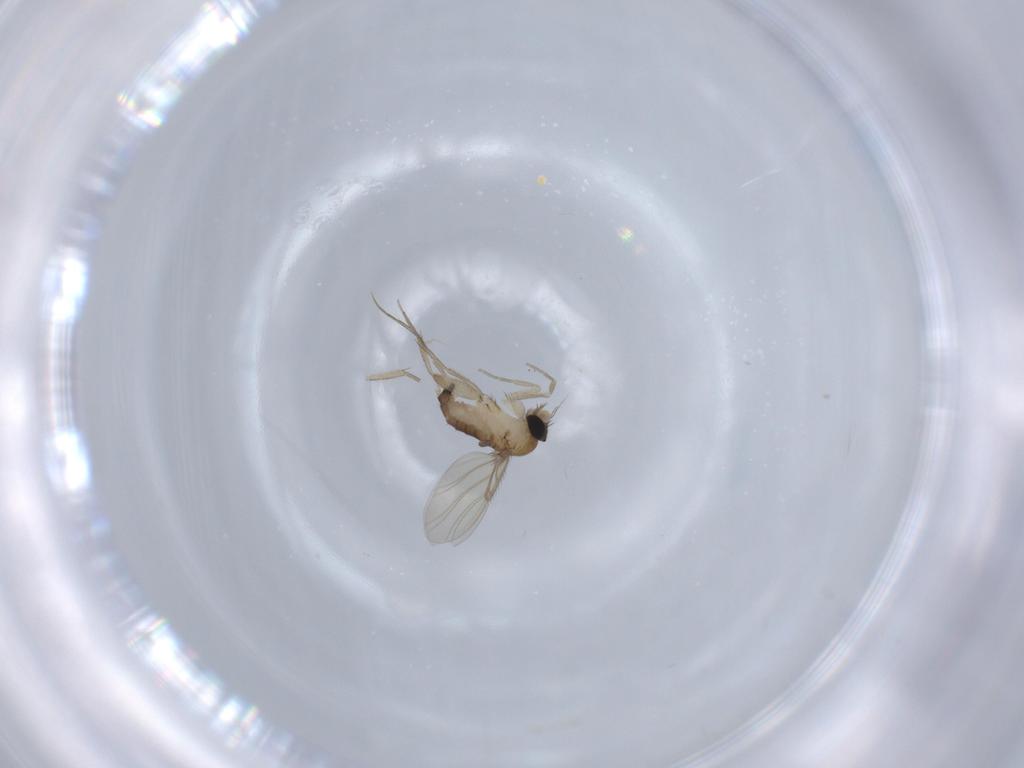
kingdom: Animalia
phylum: Arthropoda
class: Insecta
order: Diptera
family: Phoridae
